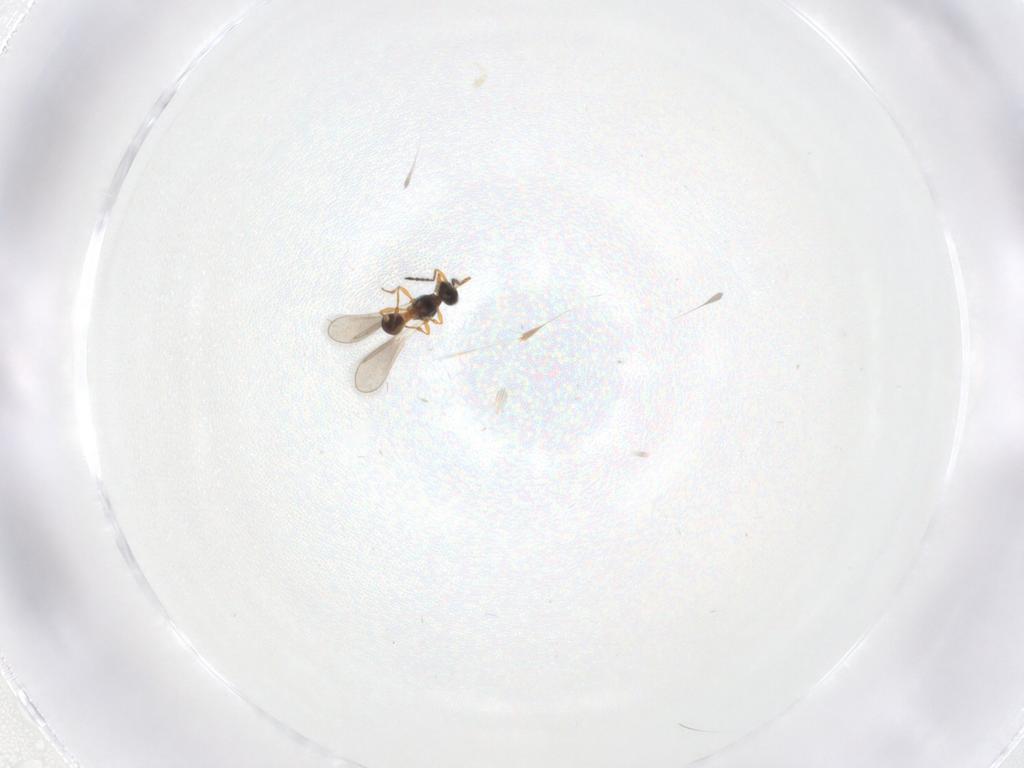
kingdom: Animalia
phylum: Arthropoda
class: Insecta
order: Hymenoptera
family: Platygastridae
